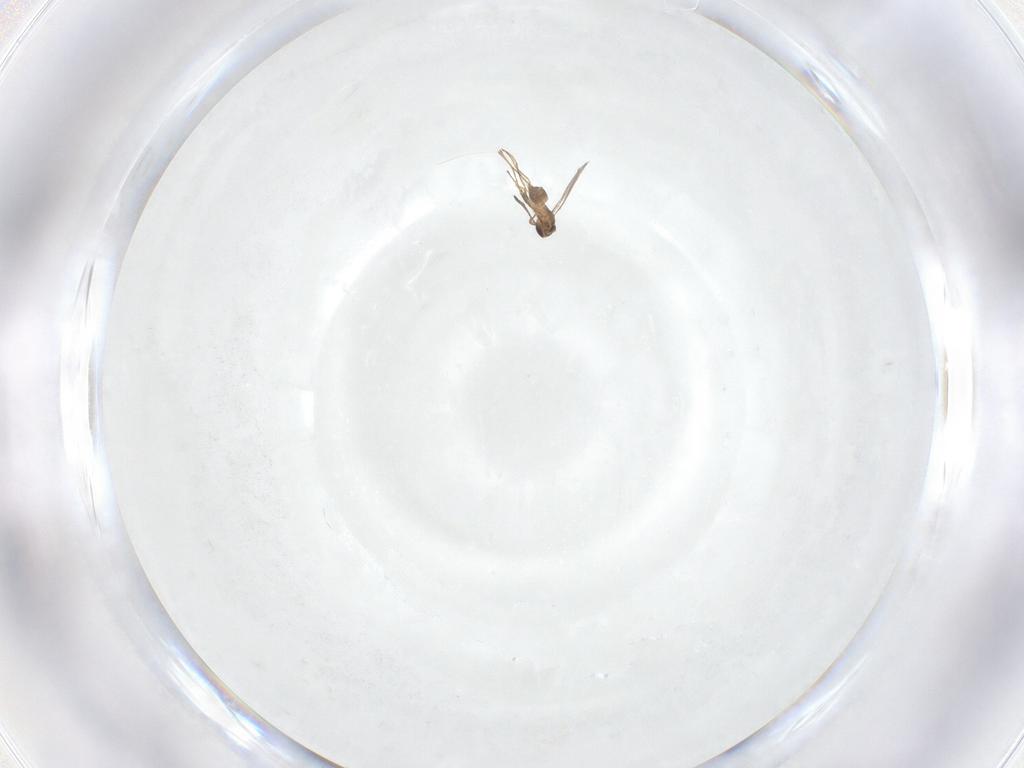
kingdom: Animalia
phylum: Arthropoda
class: Insecta
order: Hymenoptera
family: Mymaridae
